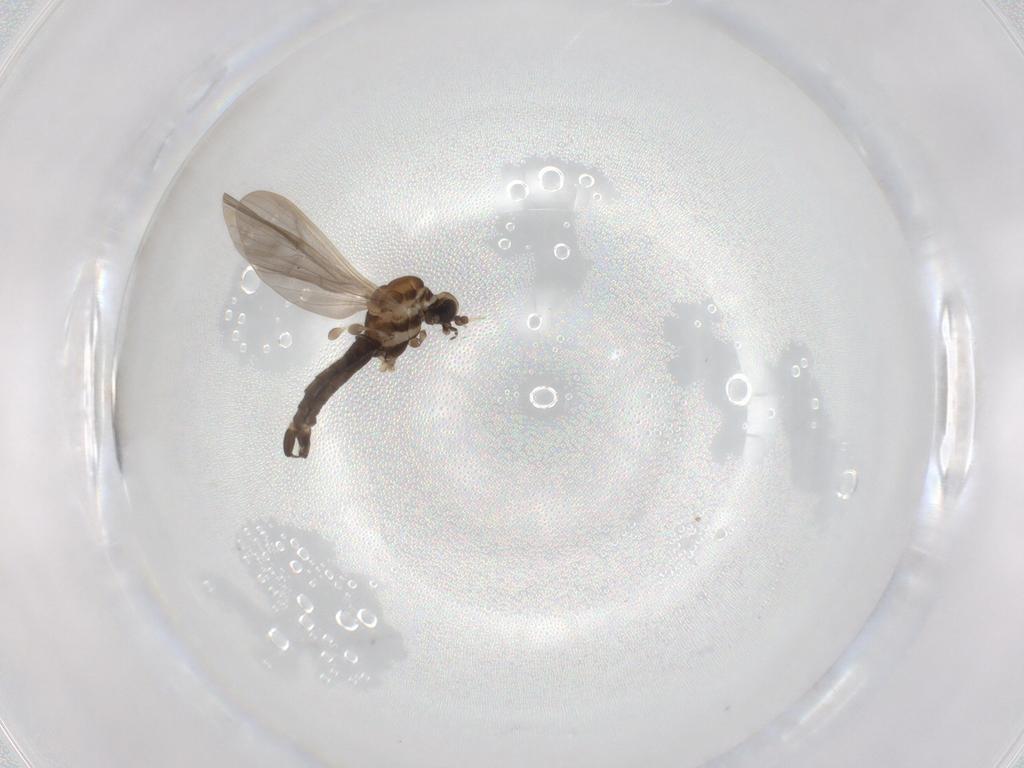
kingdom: Animalia
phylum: Arthropoda
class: Insecta
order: Diptera
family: Limoniidae
